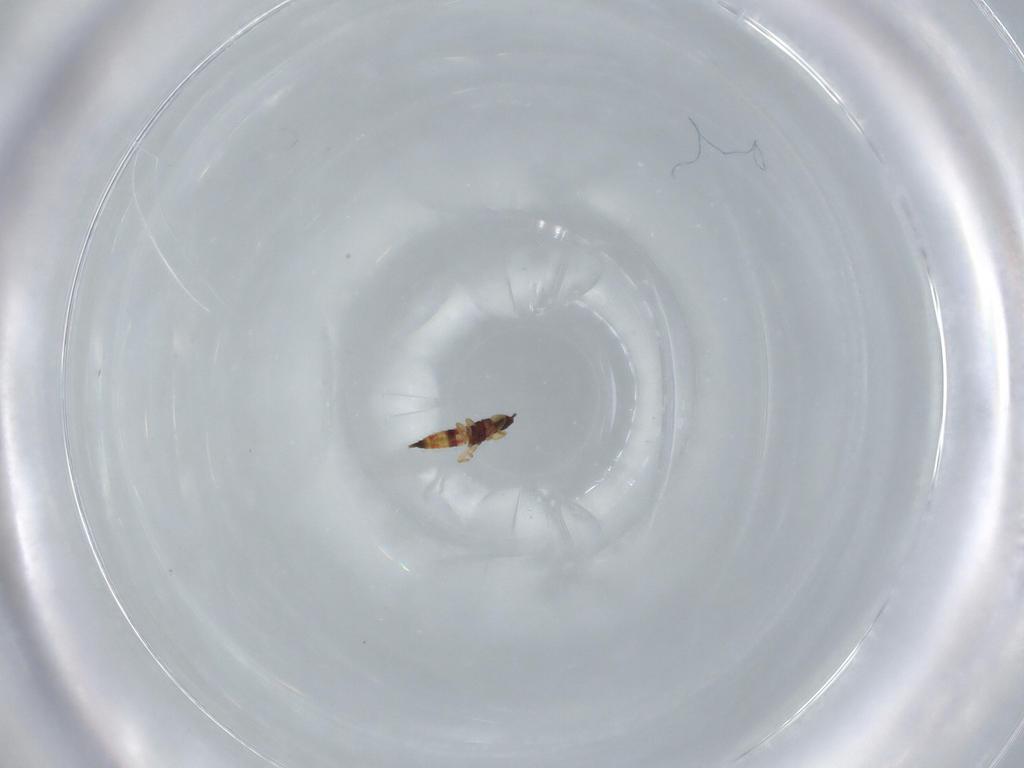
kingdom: Animalia
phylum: Arthropoda
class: Insecta
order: Thysanoptera
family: Phlaeothripidae
